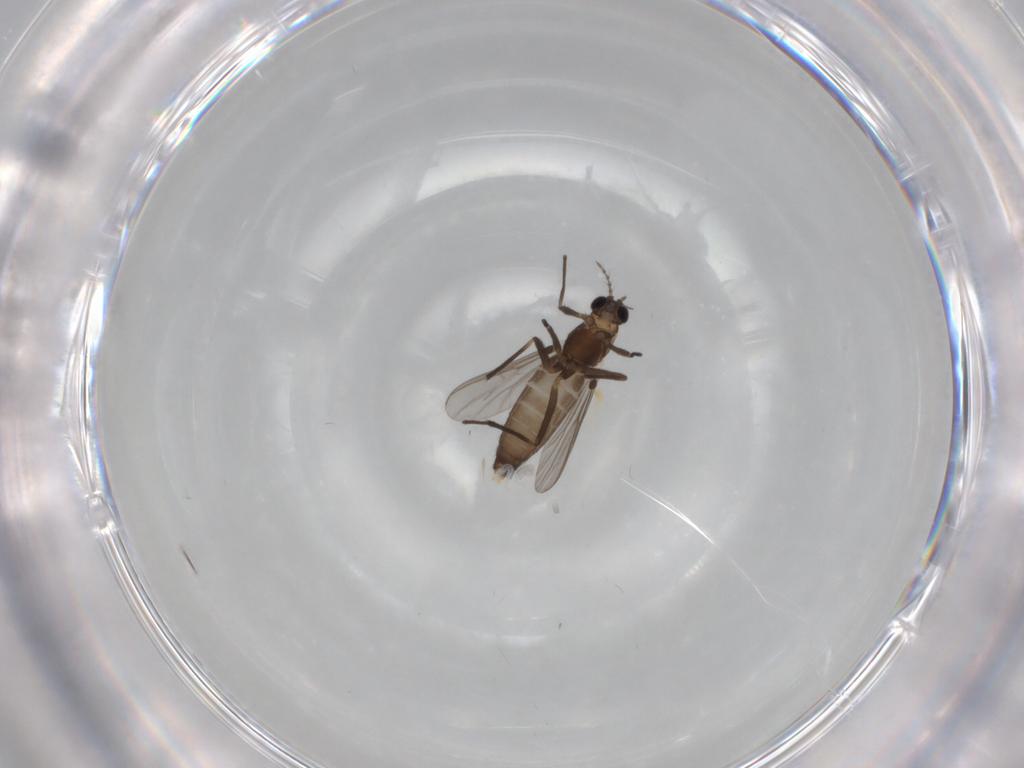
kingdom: Animalia
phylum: Arthropoda
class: Insecta
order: Diptera
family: Chironomidae
